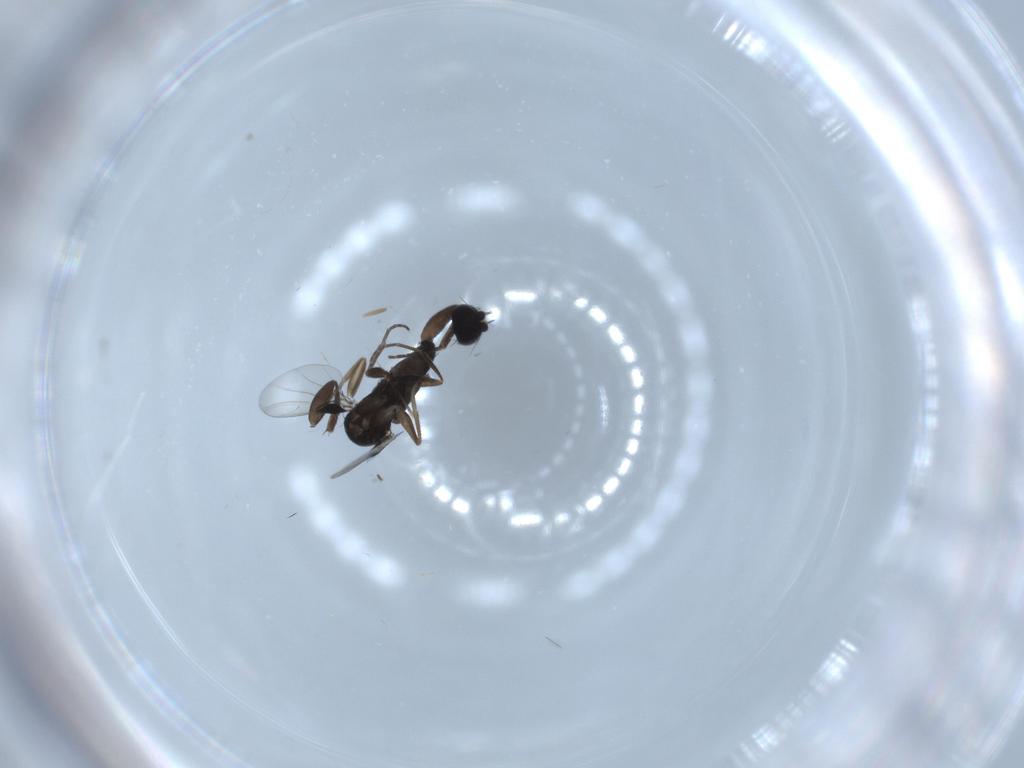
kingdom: Animalia
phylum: Arthropoda
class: Insecta
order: Diptera
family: Phoridae
